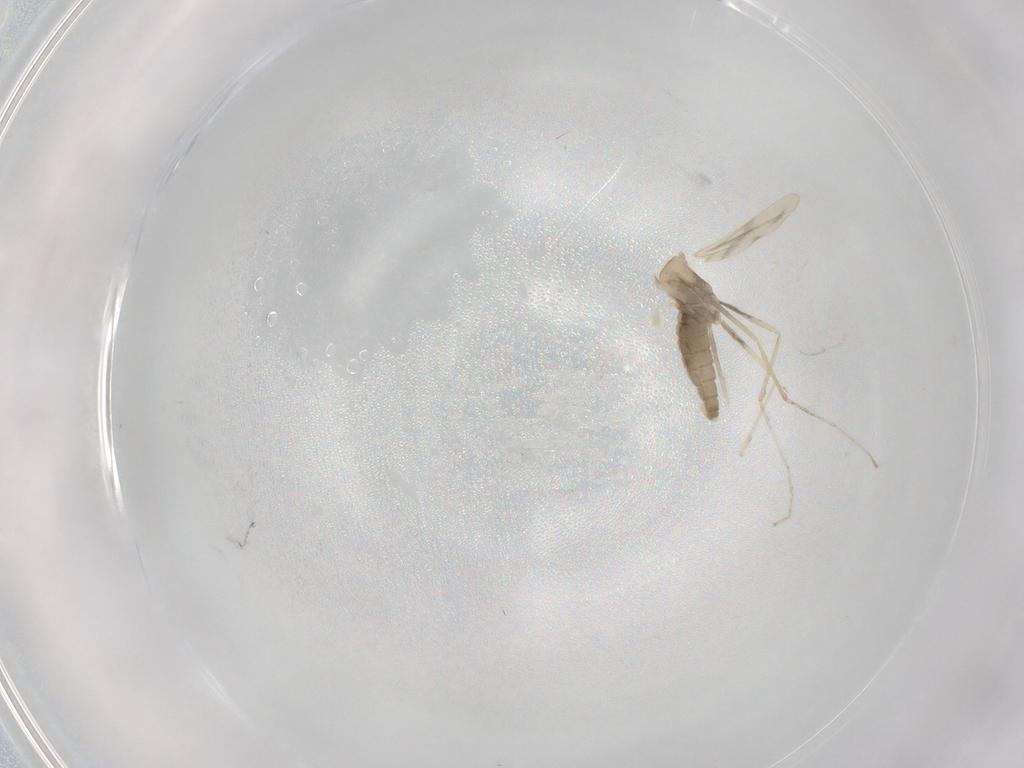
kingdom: Animalia
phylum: Arthropoda
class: Insecta
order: Diptera
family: Cecidomyiidae
